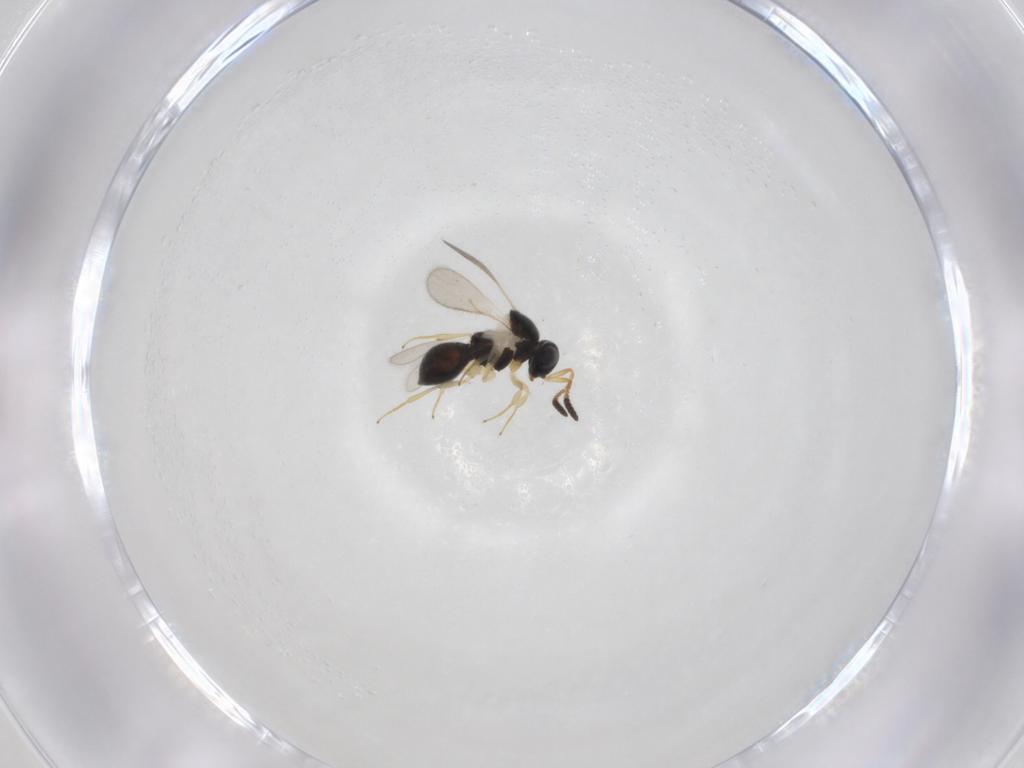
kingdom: Animalia
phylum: Arthropoda
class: Insecta
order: Hymenoptera
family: Scelionidae
